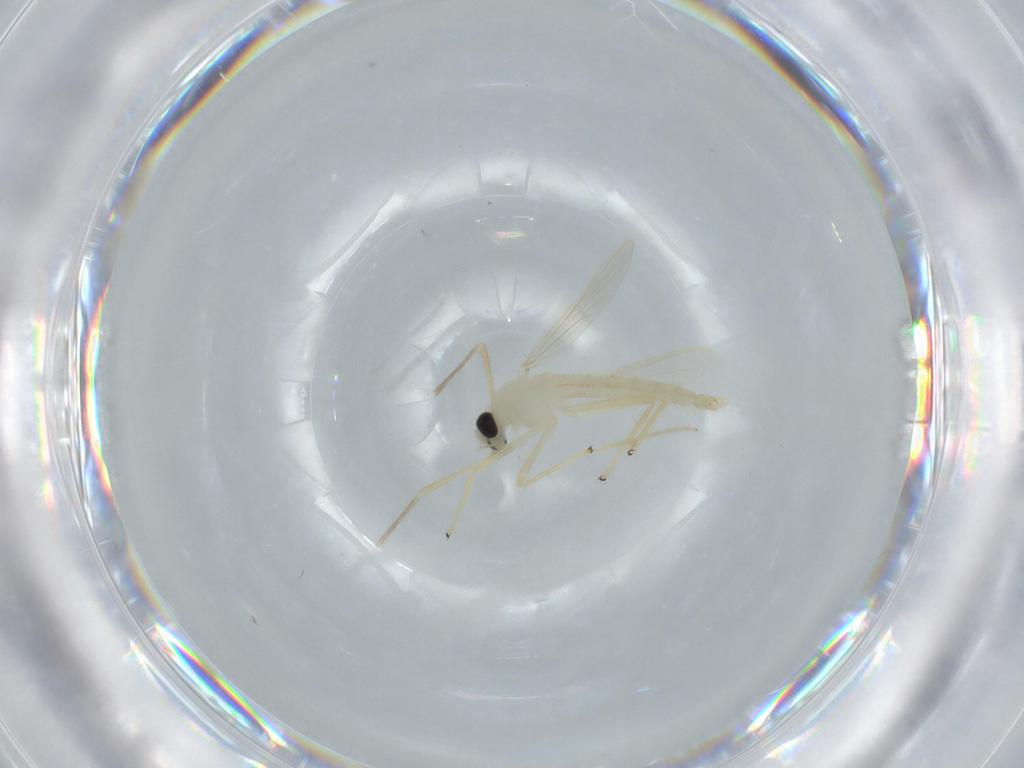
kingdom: Animalia
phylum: Arthropoda
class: Insecta
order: Diptera
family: Chironomidae
